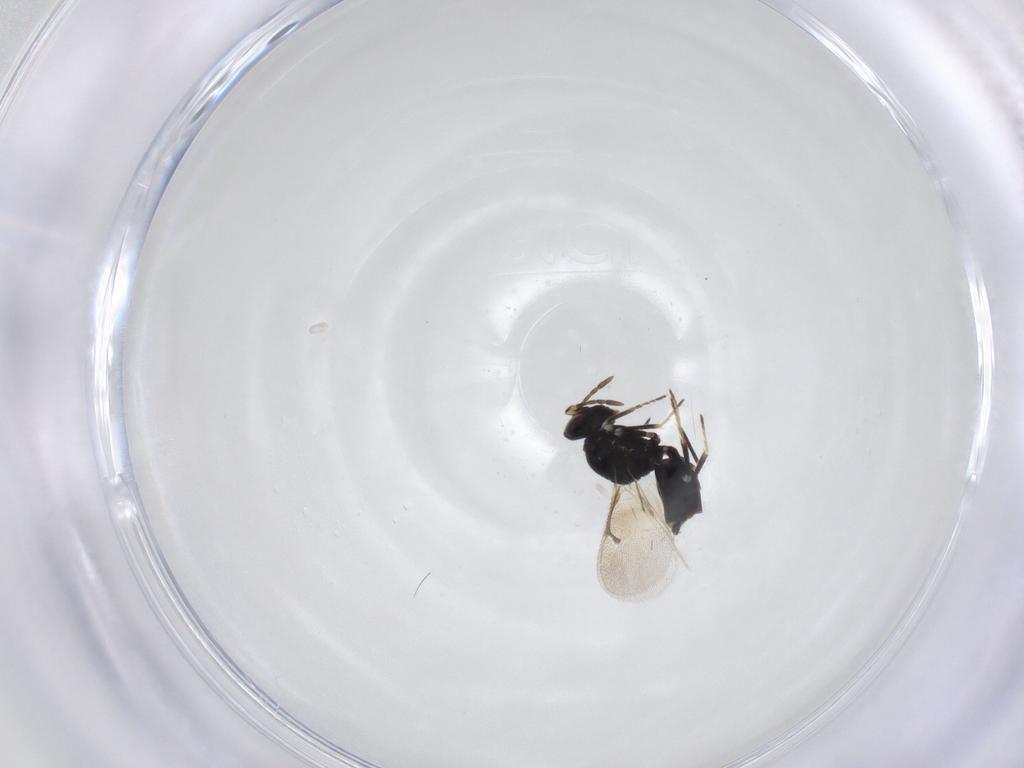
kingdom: Animalia
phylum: Arthropoda
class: Insecta
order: Hymenoptera
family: Eulophidae
